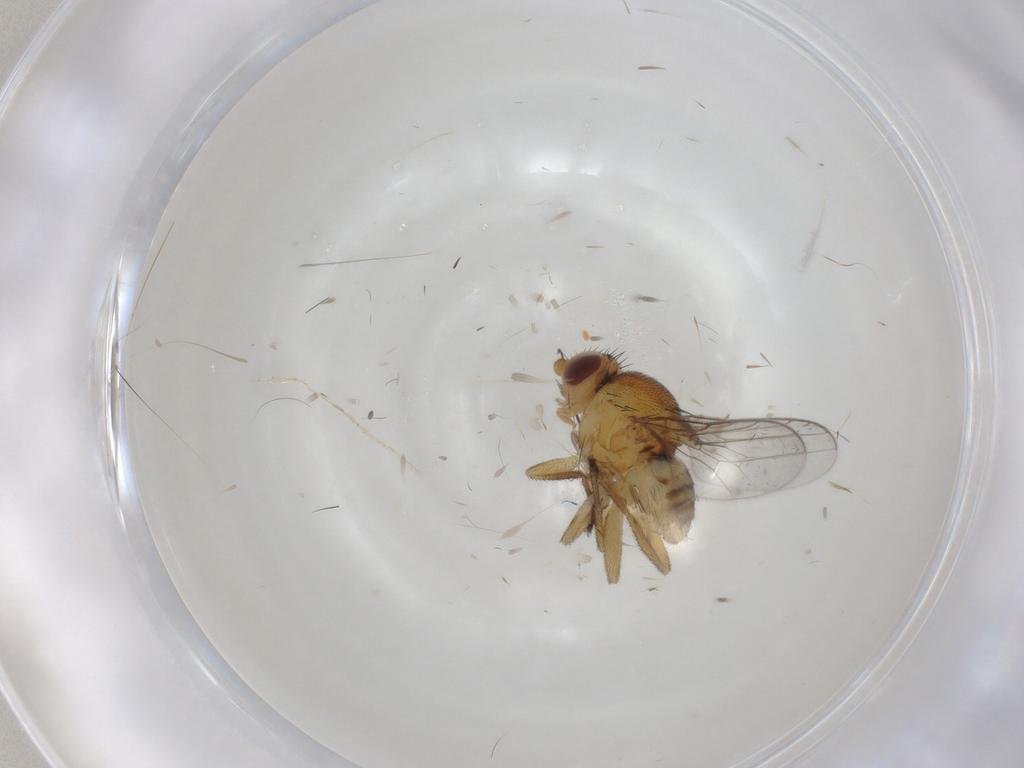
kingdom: Animalia
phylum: Arthropoda
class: Insecta
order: Diptera
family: Chloropidae
